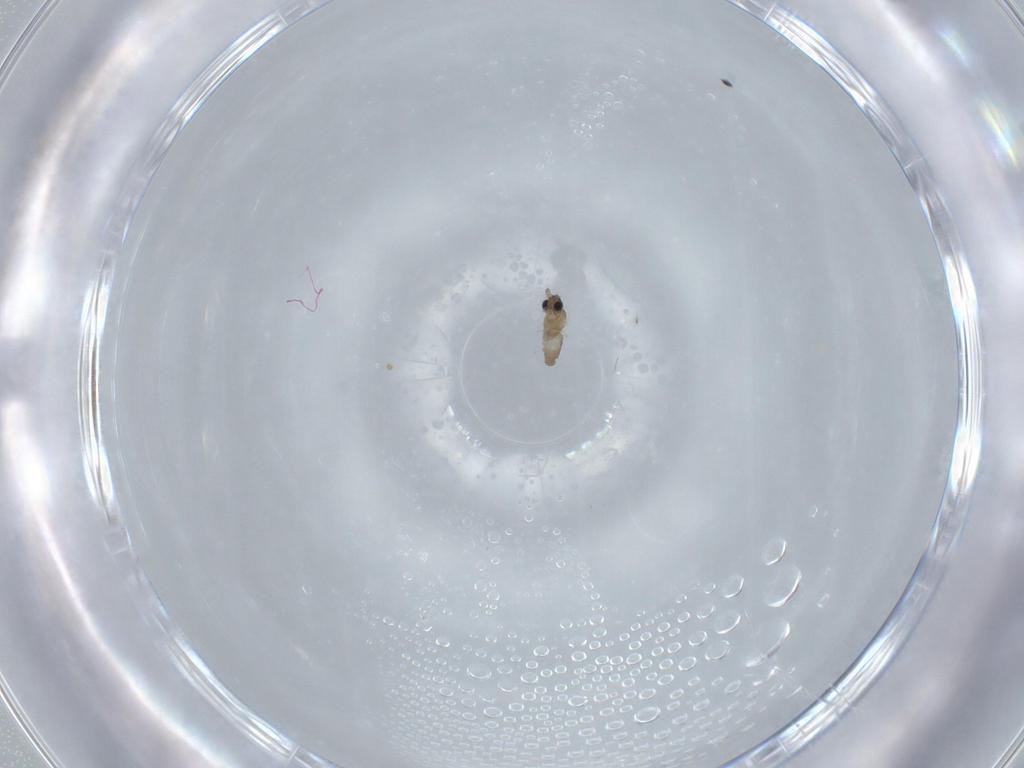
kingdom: Animalia
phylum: Arthropoda
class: Insecta
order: Diptera
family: Cecidomyiidae
